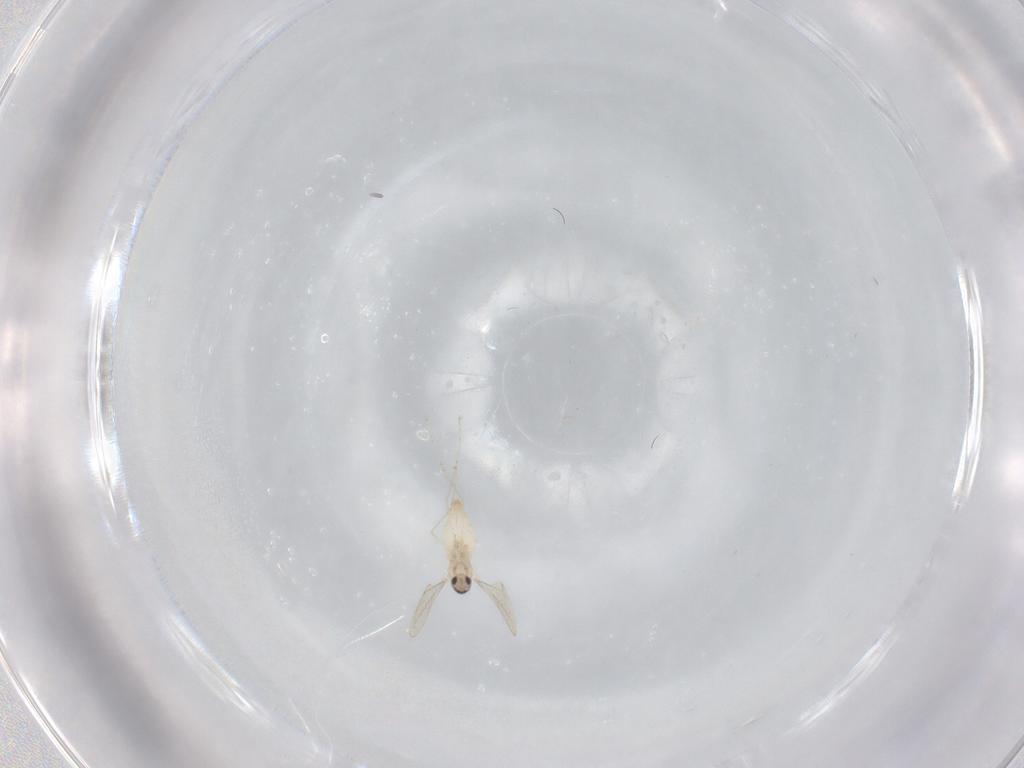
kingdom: Animalia
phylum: Arthropoda
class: Insecta
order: Diptera
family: Cecidomyiidae
